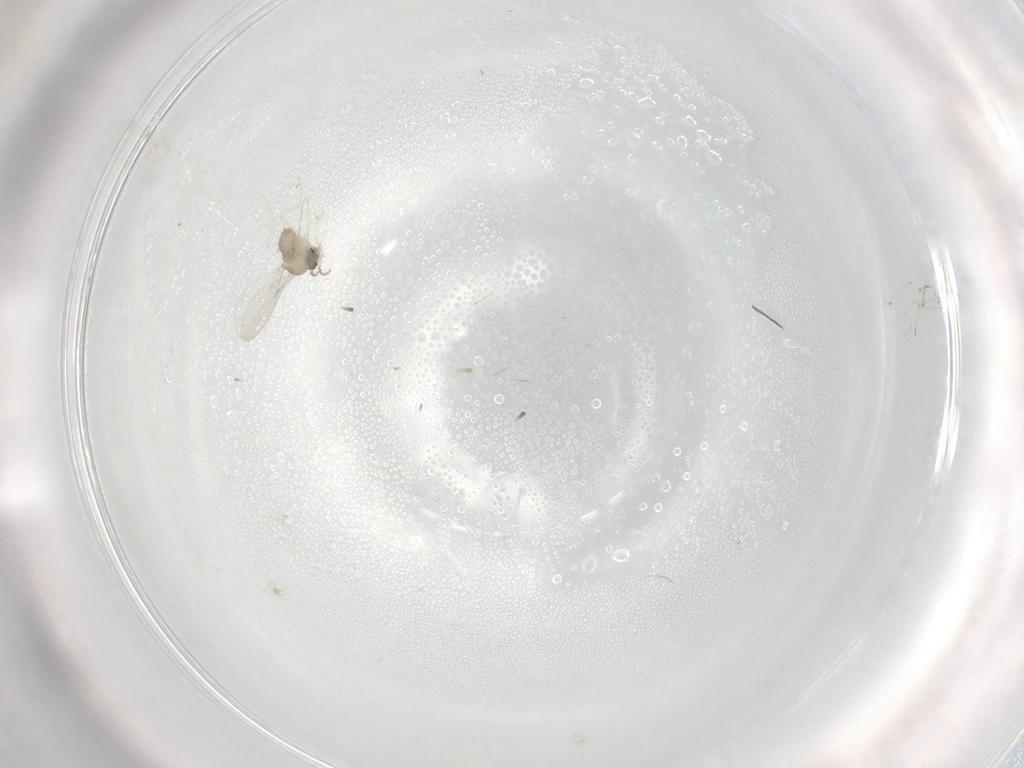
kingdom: Animalia
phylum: Arthropoda
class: Insecta
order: Diptera
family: Cecidomyiidae
